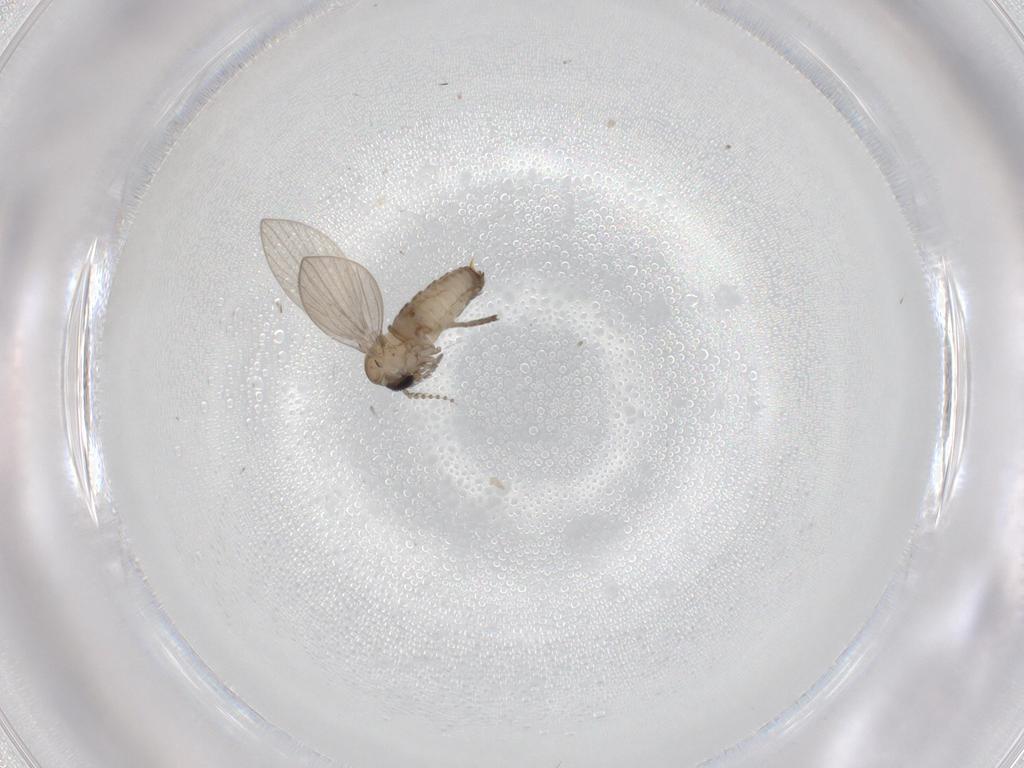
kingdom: Animalia
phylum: Arthropoda
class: Insecta
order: Diptera
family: Psychodidae
